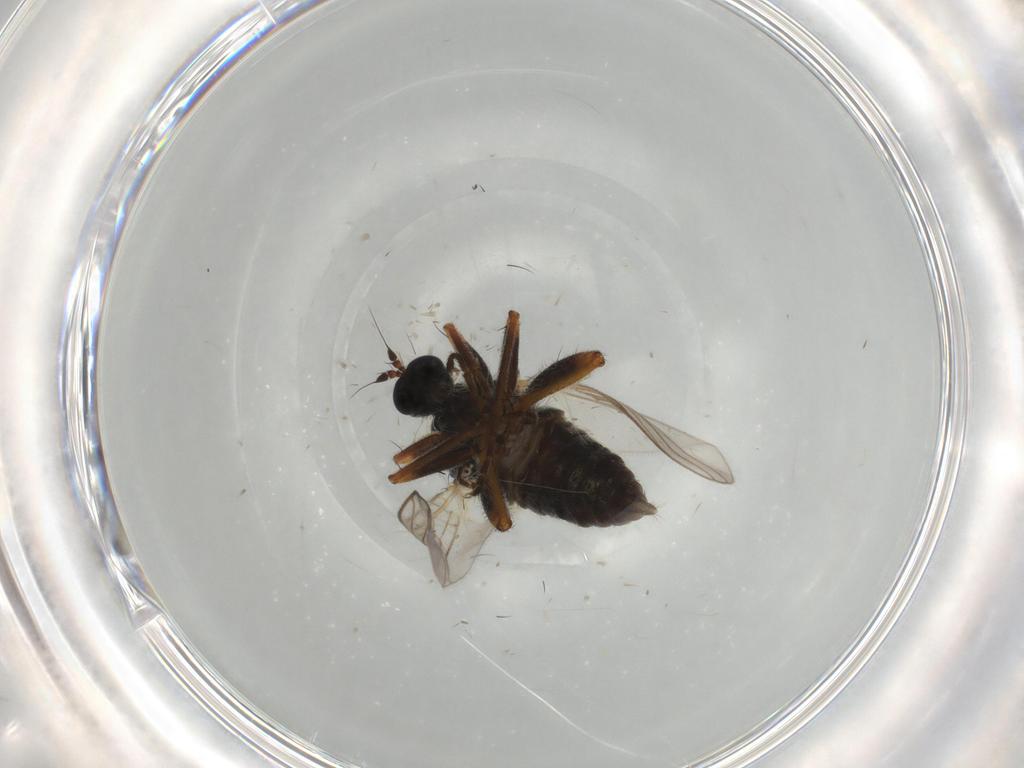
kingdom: Animalia
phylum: Arthropoda
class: Insecta
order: Diptera
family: Hybotidae
